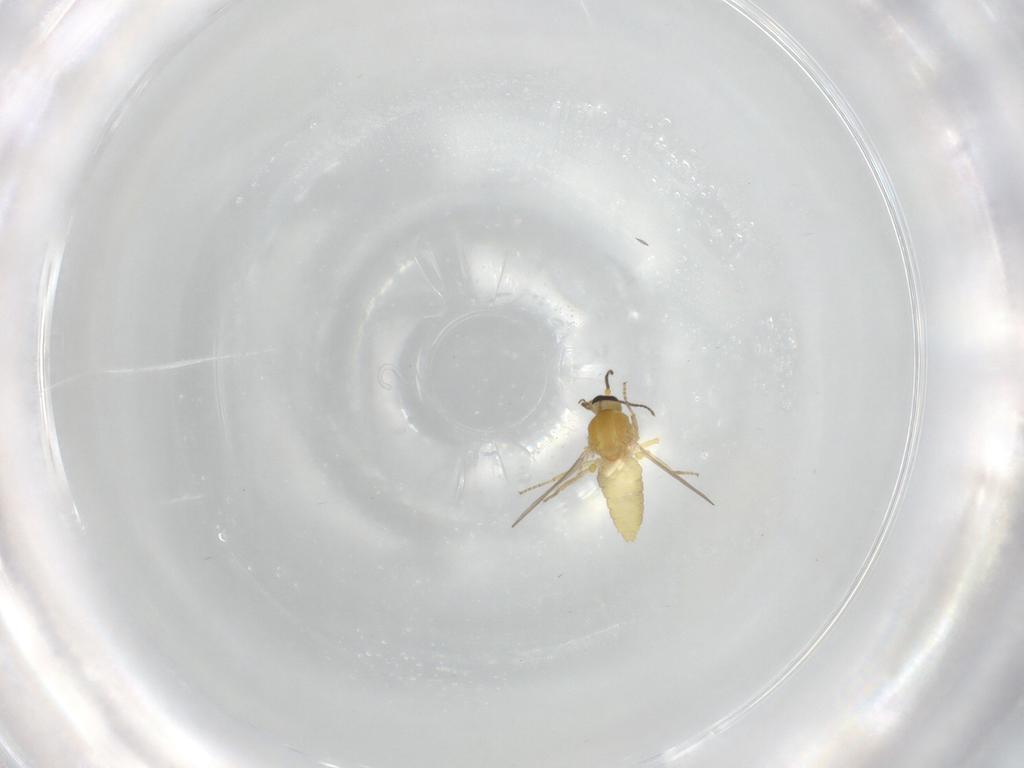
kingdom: Animalia
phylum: Arthropoda
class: Insecta
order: Diptera
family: Ceratopogonidae
